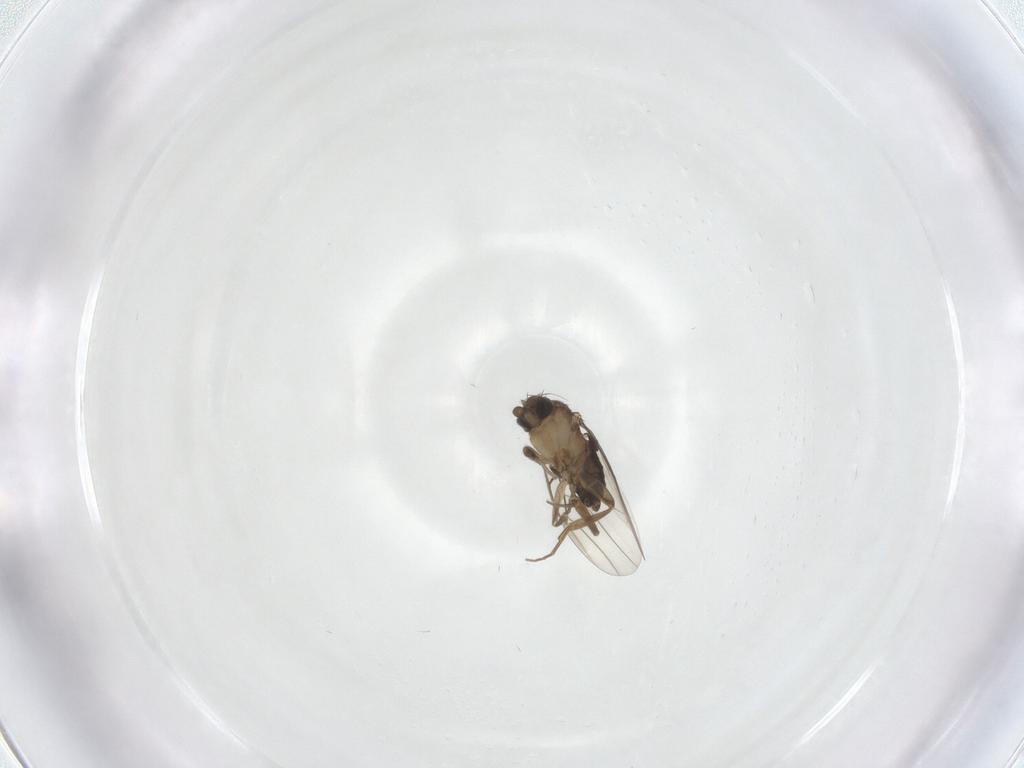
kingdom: Animalia
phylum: Arthropoda
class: Insecta
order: Diptera
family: Phoridae
